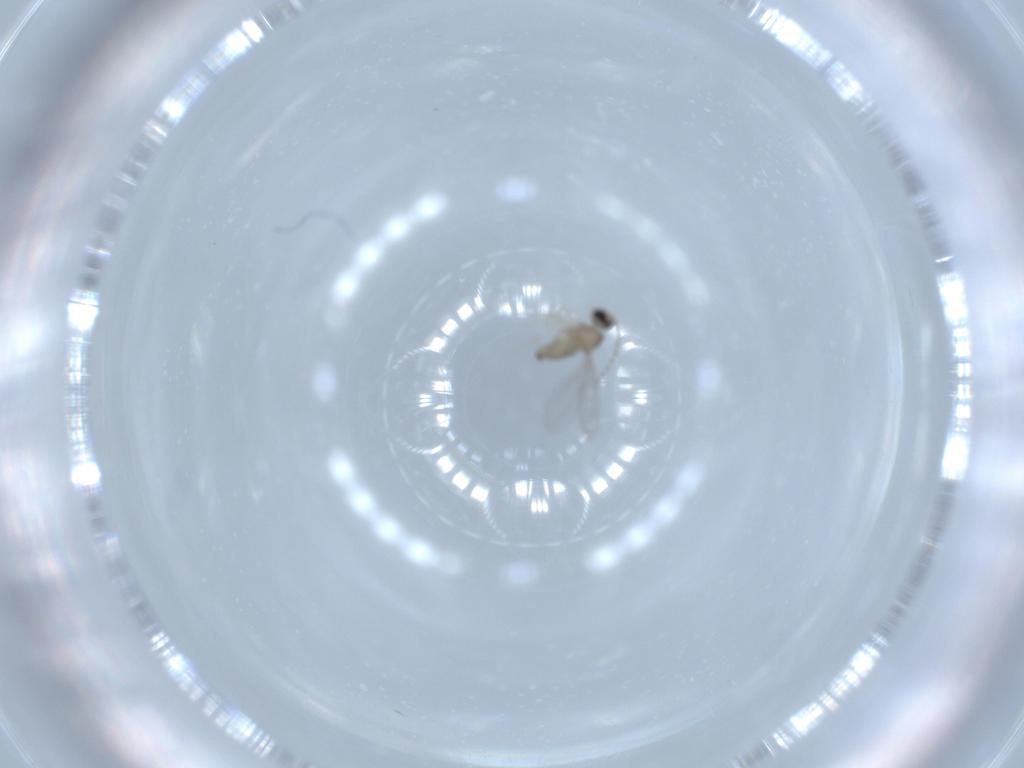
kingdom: Animalia
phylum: Arthropoda
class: Insecta
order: Diptera
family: Cecidomyiidae
